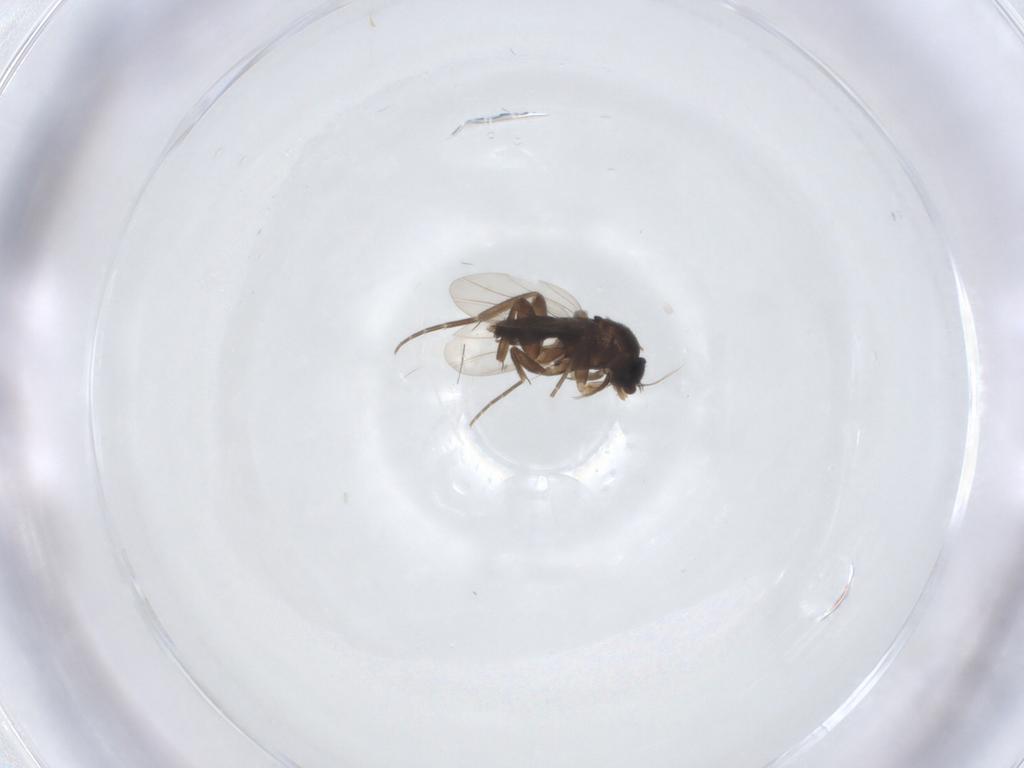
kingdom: Animalia
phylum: Arthropoda
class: Insecta
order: Diptera
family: Phoridae
